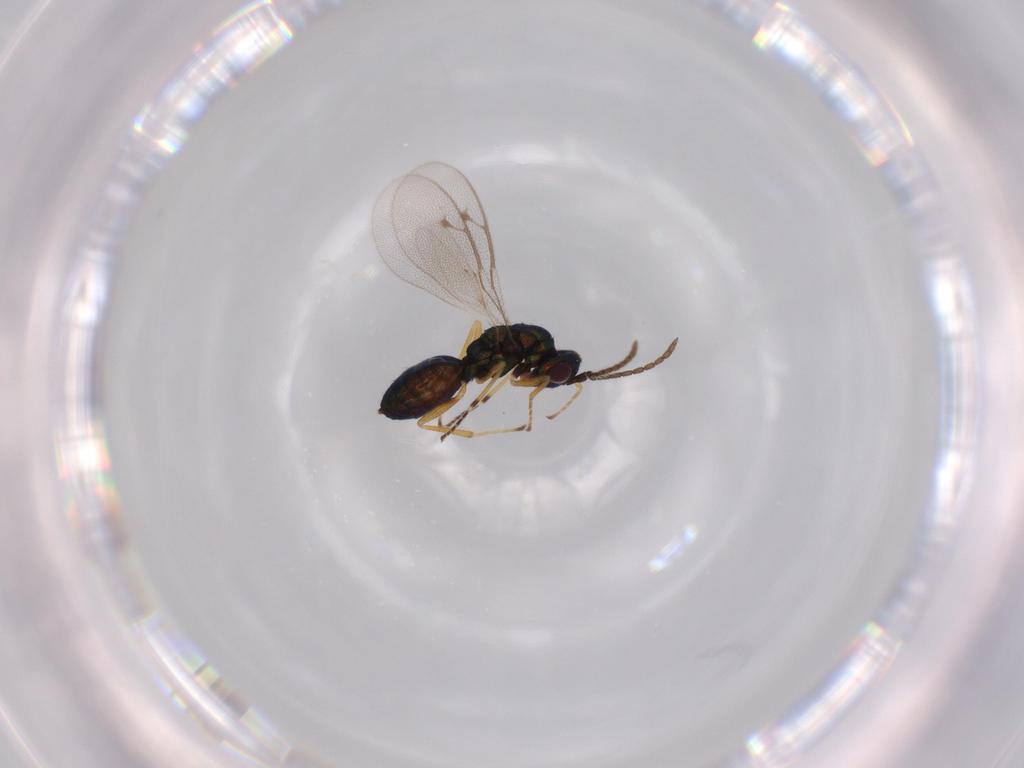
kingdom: Animalia
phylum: Arthropoda
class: Insecta
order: Hymenoptera
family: Pteromalidae
